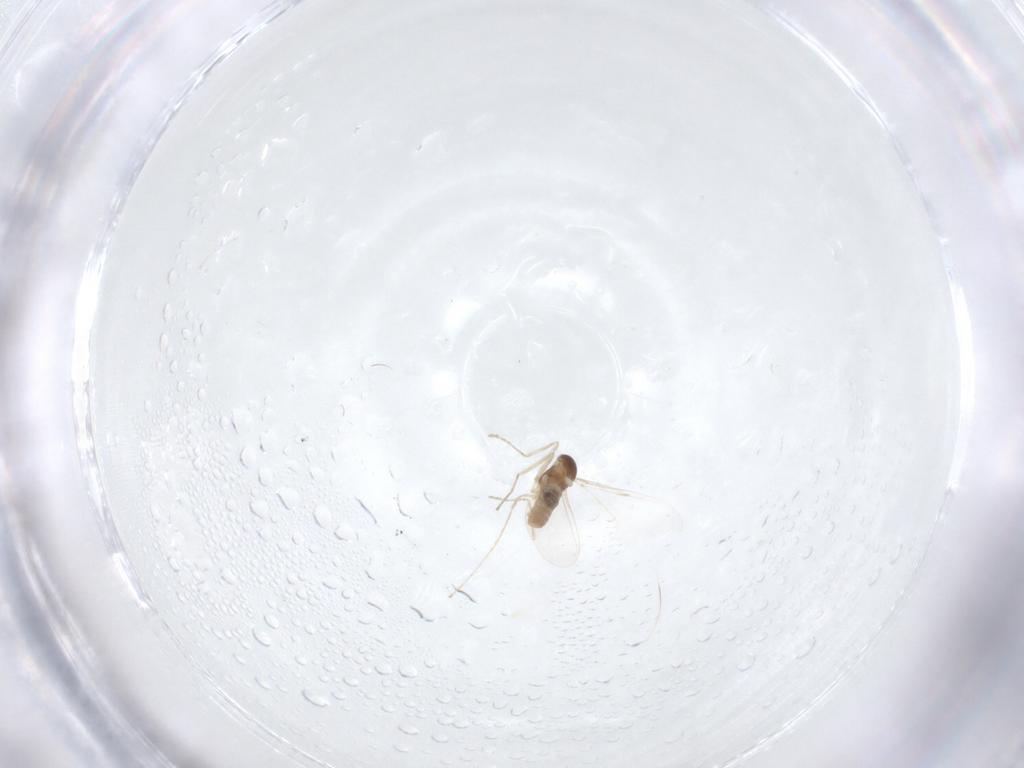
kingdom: Animalia
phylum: Arthropoda
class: Insecta
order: Diptera
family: Cecidomyiidae
